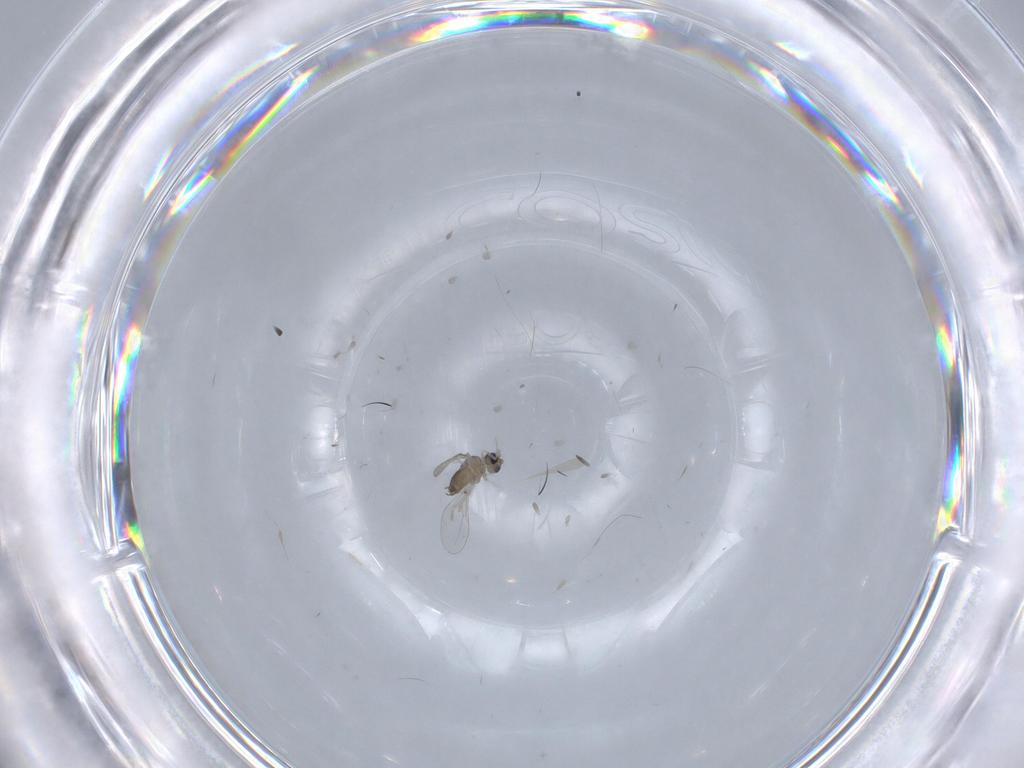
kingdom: Animalia
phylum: Arthropoda
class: Insecta
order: Diptera
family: Cecidomyiidae
